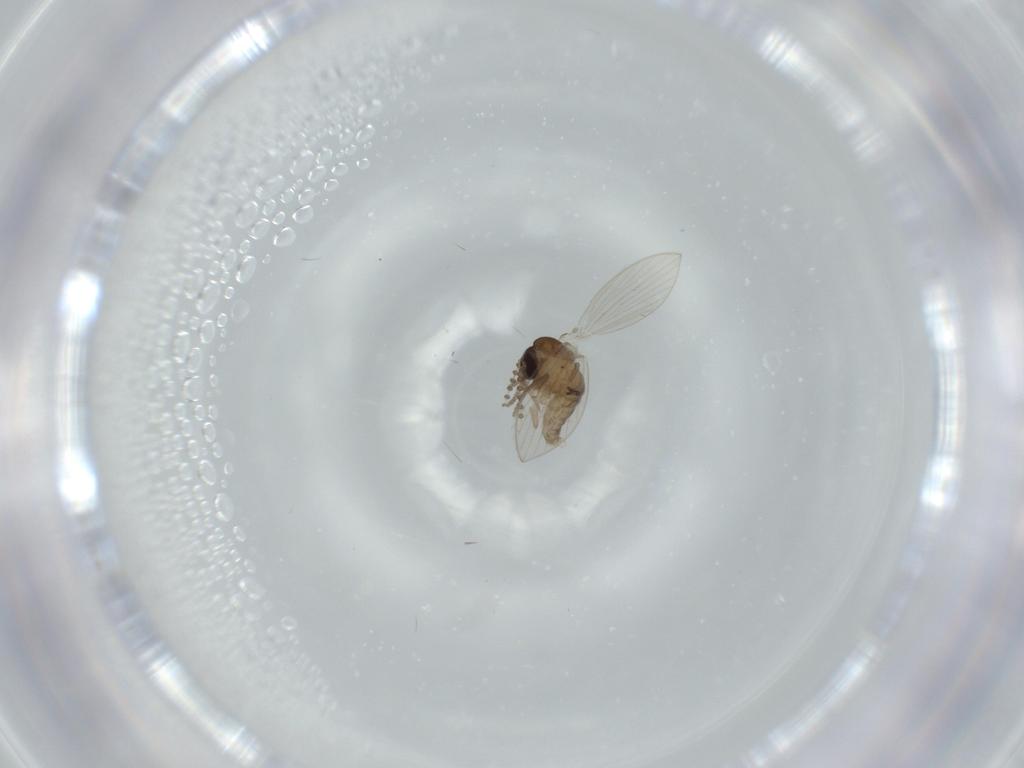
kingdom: Animalia
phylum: Arthropoda
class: Insecta
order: Diptera
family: Psychodidae
